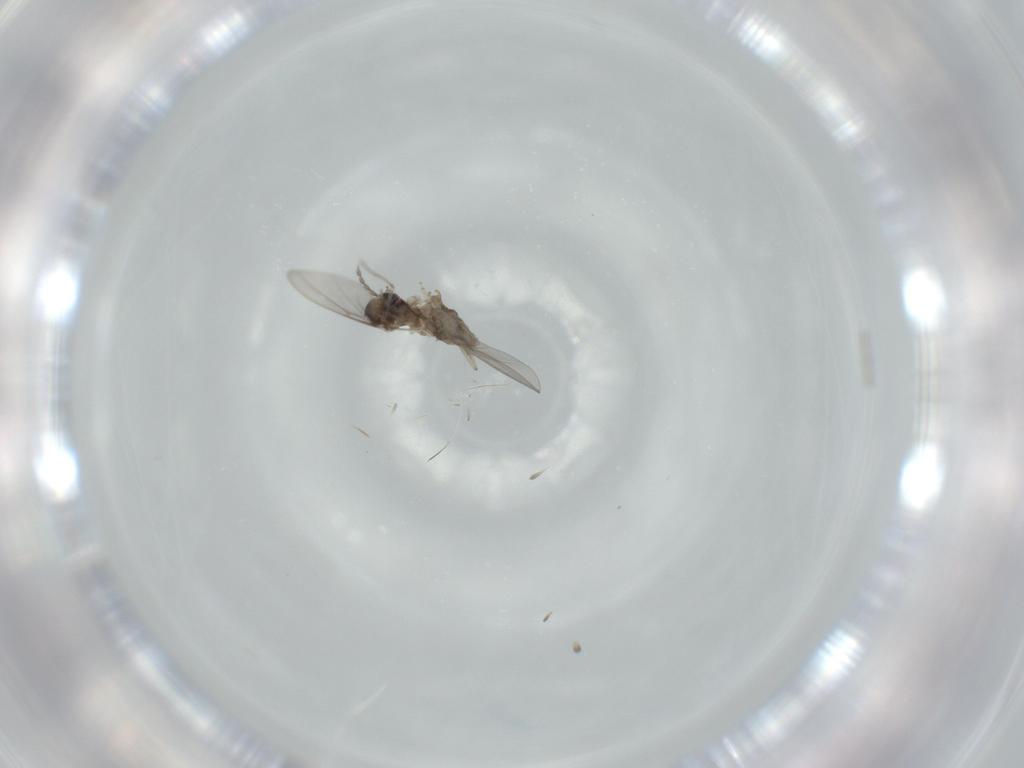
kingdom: Animalia
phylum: Arthropoda
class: Insecta
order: Diptera
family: Cecidomyiidae
